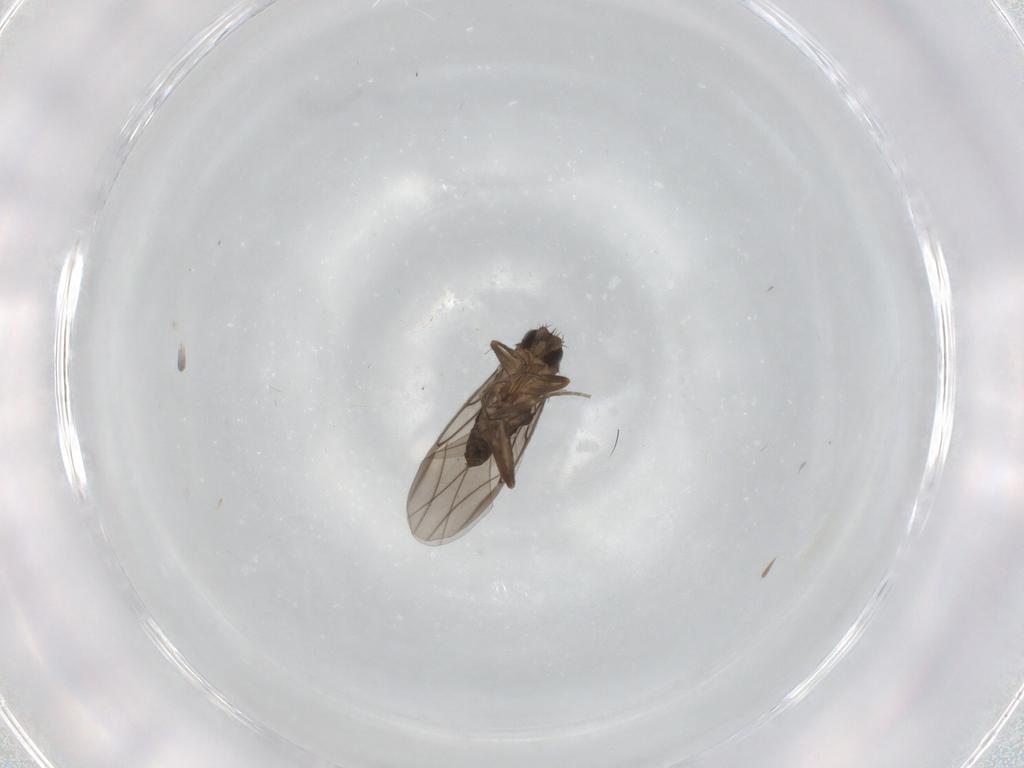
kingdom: Animalia
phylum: Arthropoda
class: Insecta
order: Diptera
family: Phoridae
